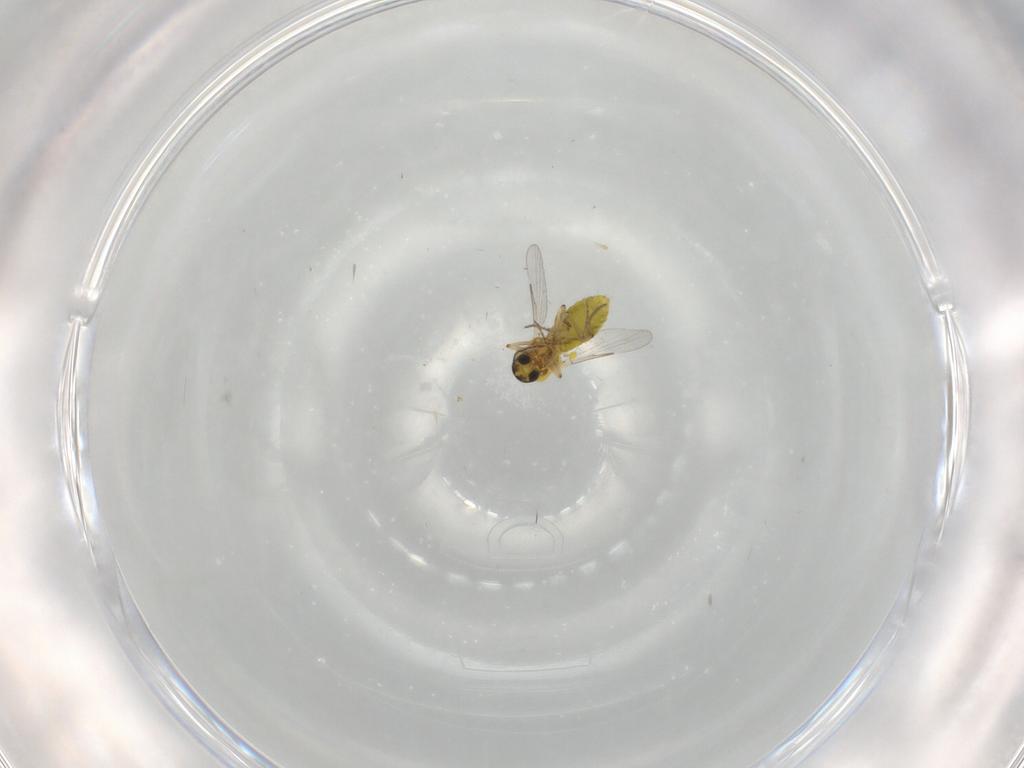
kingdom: Animalia
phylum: Arthropoda
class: Insecta
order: Diptera
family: Ceratopogonidae
